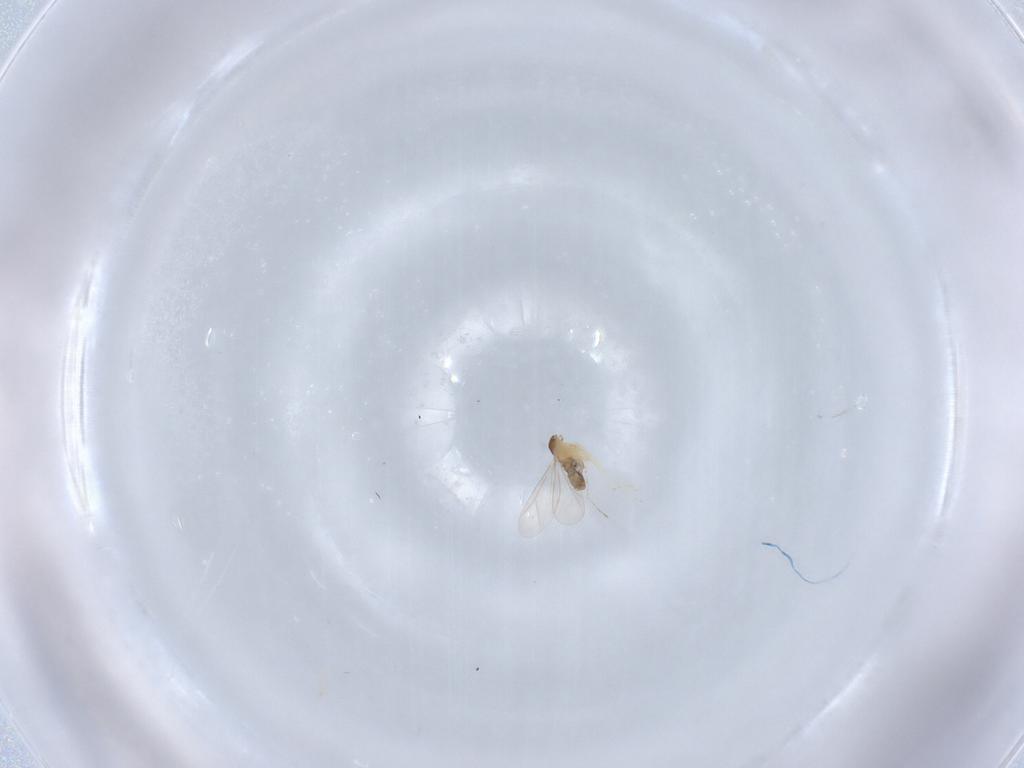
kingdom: Animalia
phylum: Arthropoda
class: Insecta
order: Diptera
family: Cecidomyiidae
